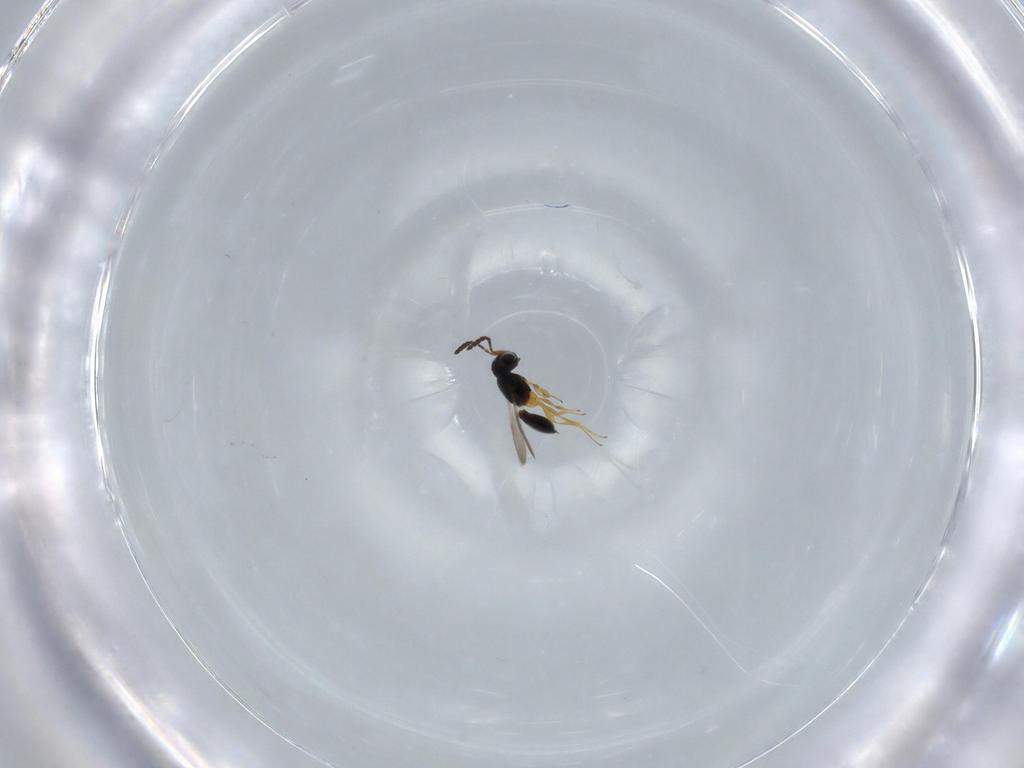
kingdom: Animalia
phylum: Arthropoda
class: Insecta
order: Hymenoptera
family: Scelionidae
